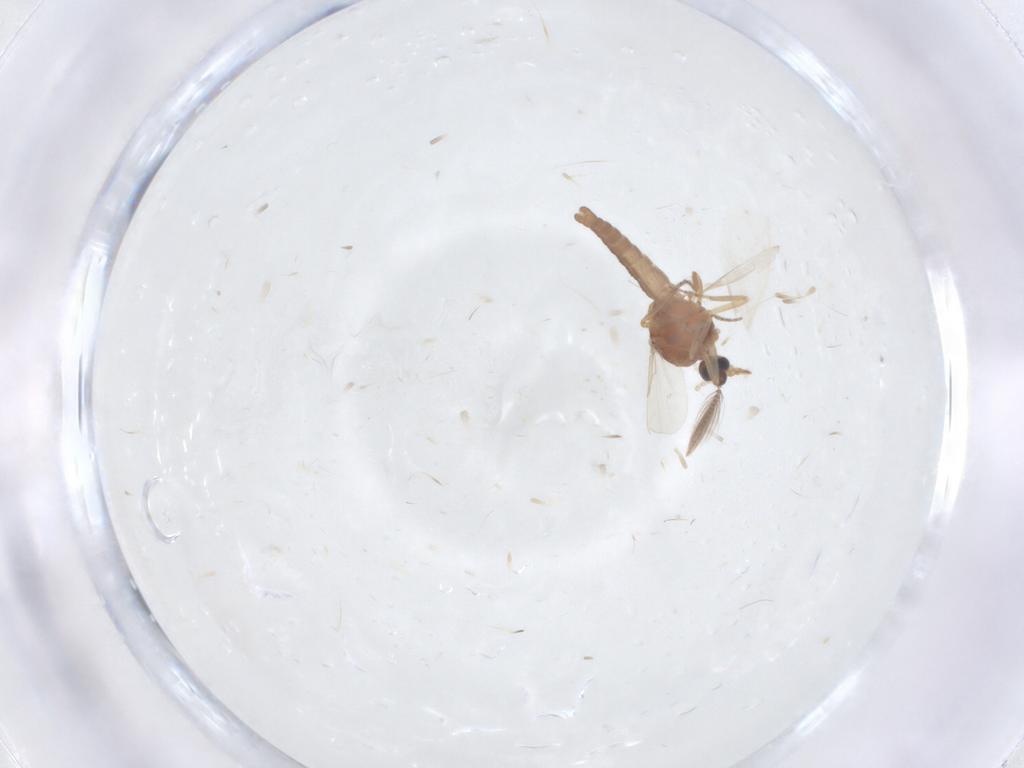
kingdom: Animalia
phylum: Arthropoda
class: Insecta
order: Diptera
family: Ceratopogonidae
